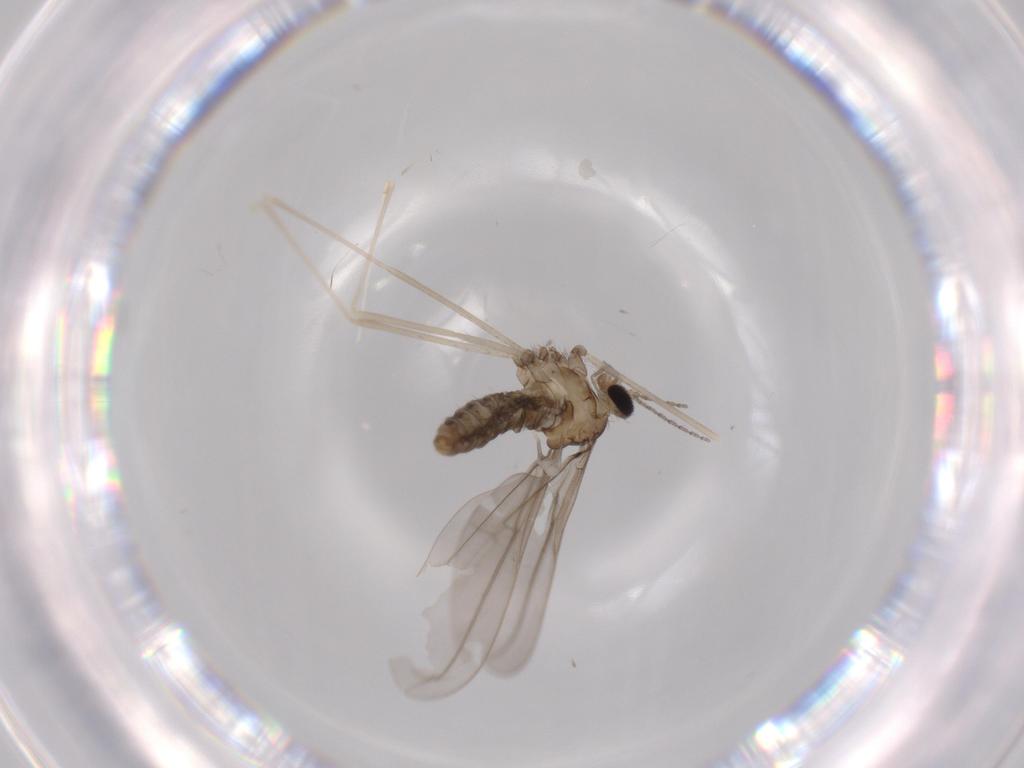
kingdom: Animalia
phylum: Arthropoda
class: Insecta
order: Diptera
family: Cecidomyiidae
